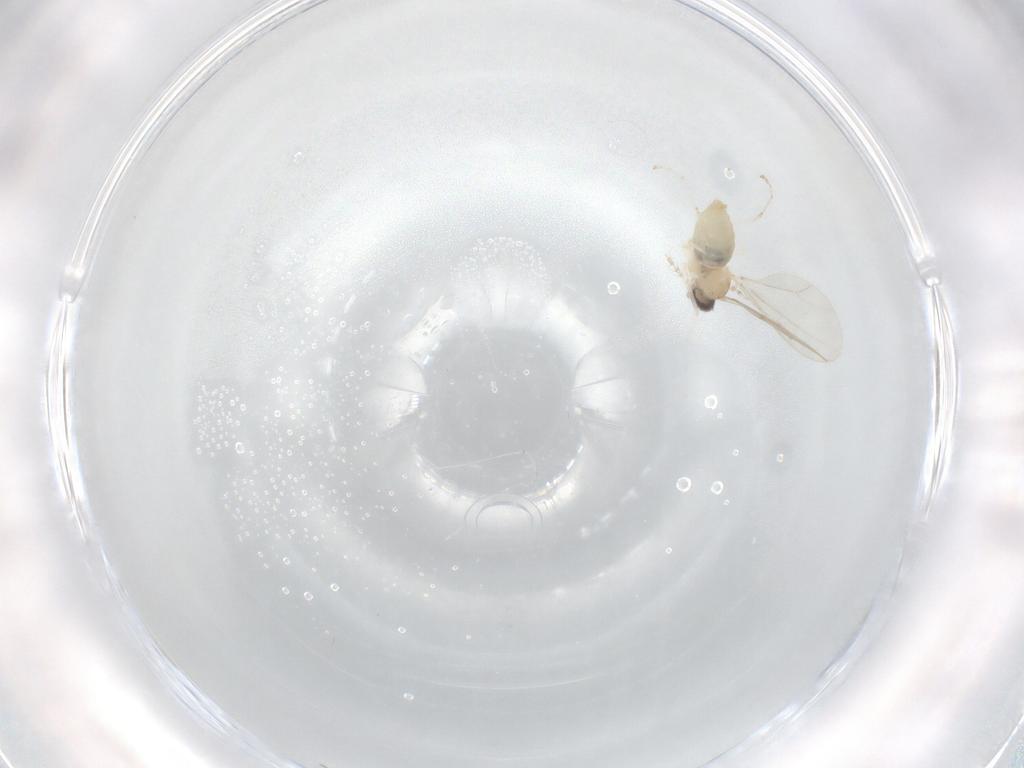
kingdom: Animalia
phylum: Arthropoda
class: Insecta
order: Diptera
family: Cecidomyiidae
